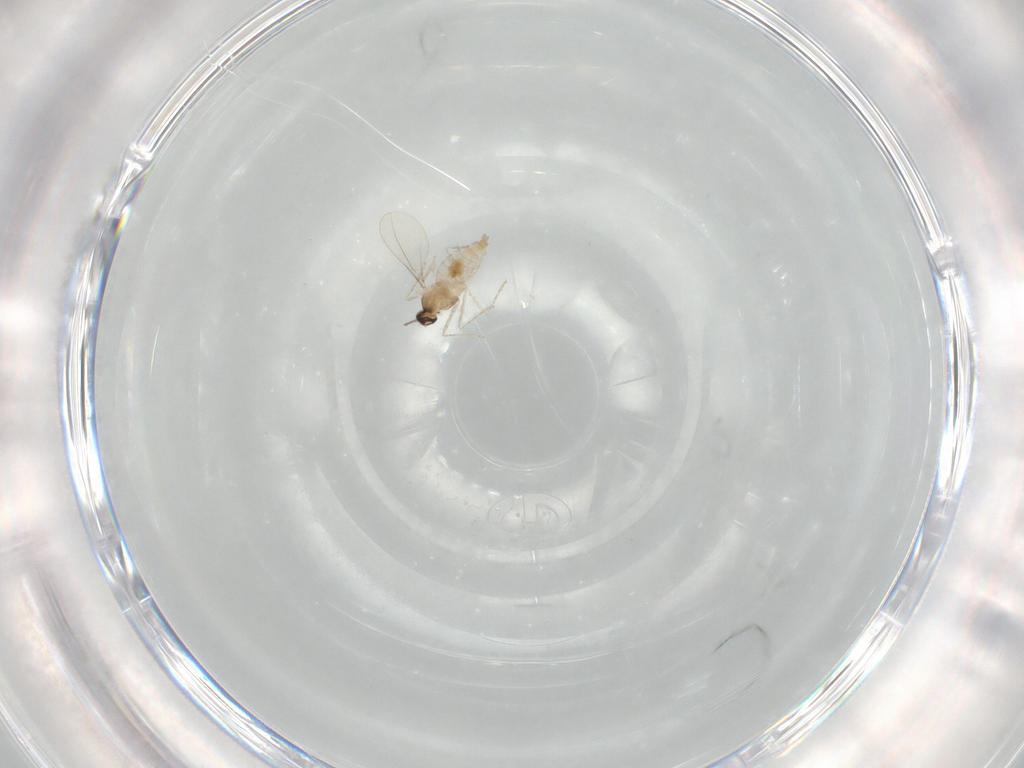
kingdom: Animalia
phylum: Arthropoda
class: Insecta
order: Diptera
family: Cecidomyiidae
